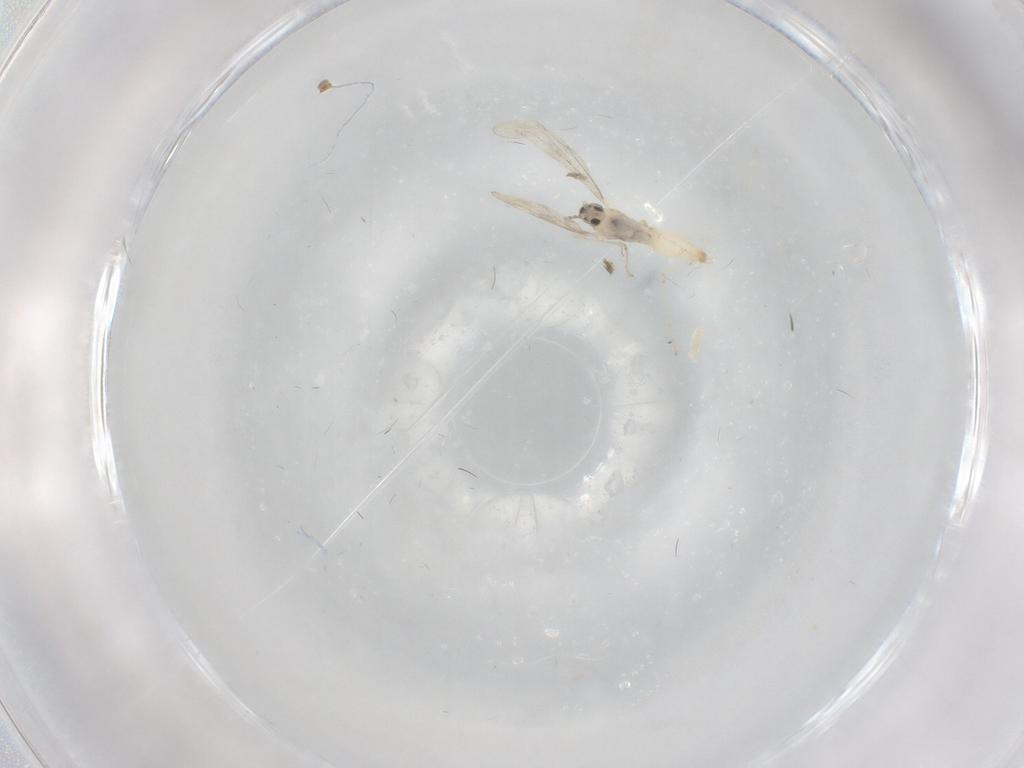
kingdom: Animalia
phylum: Arthropoda
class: Insecta
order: Diptera
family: Cecidomyiidae
